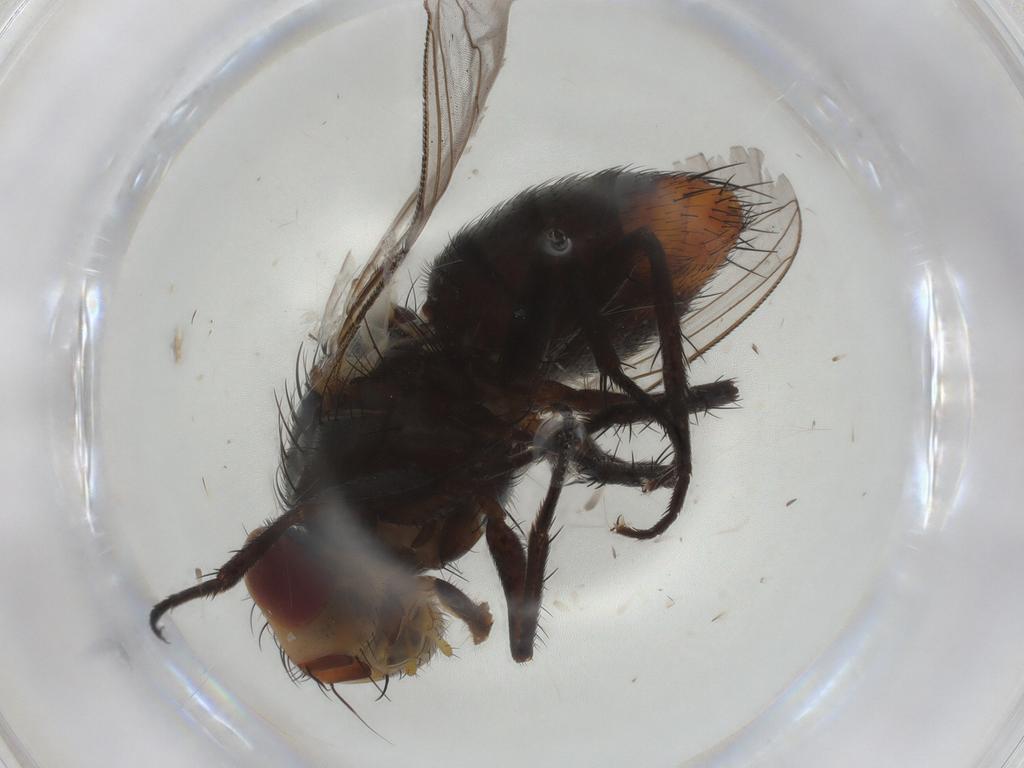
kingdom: Animalia
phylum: Arthropoda
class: Insecta
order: Diptera
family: Sarcophagidae
